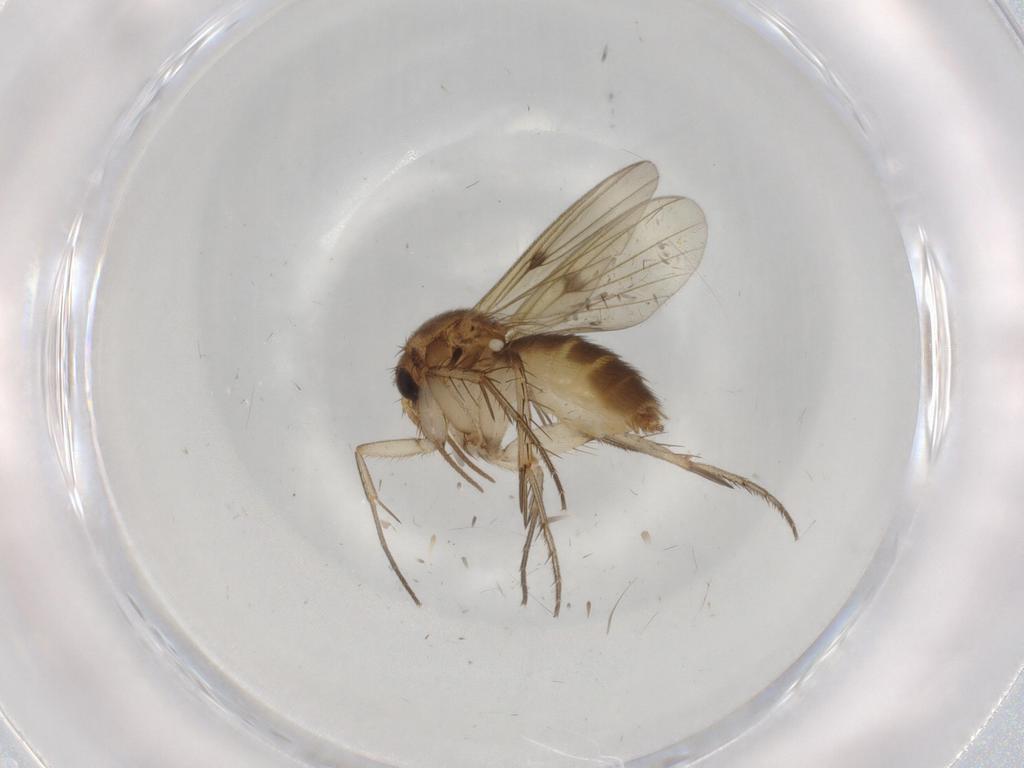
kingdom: Animalia
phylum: Arthropoda
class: Insecta
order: Diptera
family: Mycetophilidae
